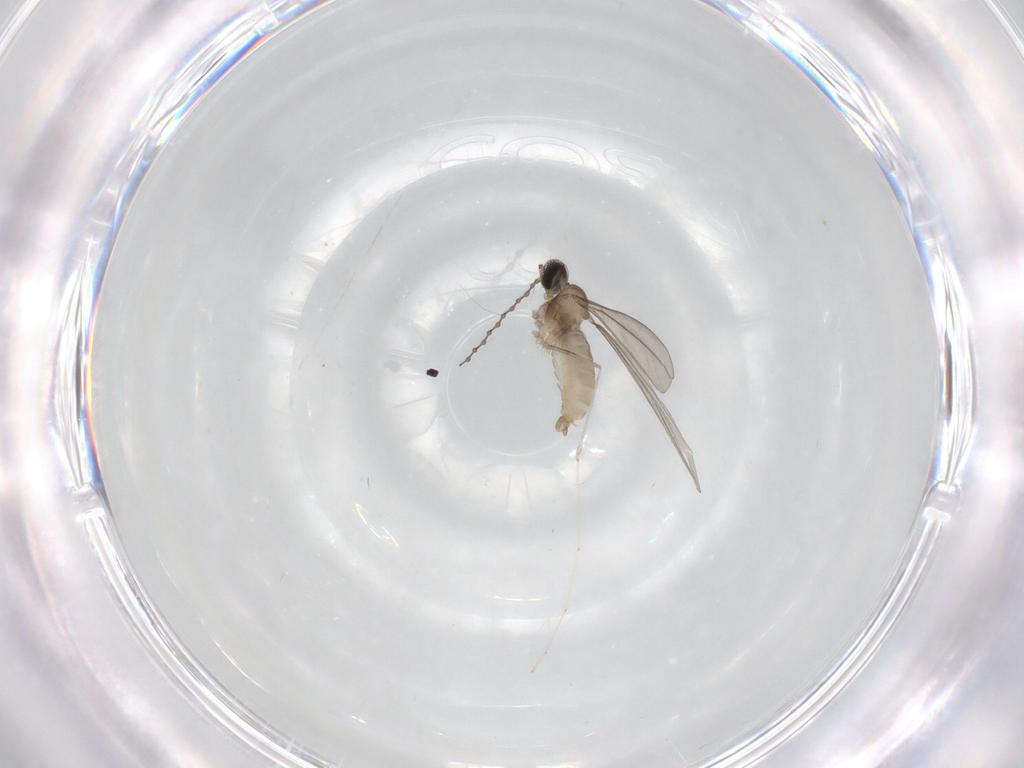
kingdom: Animalia
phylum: Arthropoda
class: Insecta
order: Diptera
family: Cecidomyiidae
